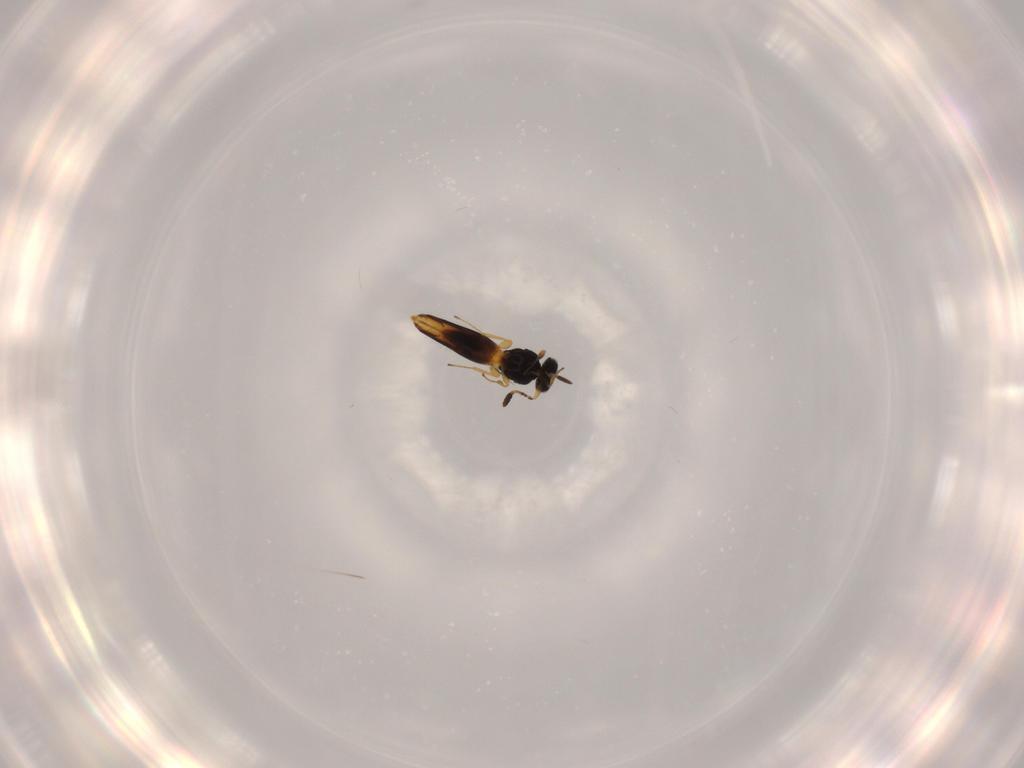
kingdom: Animalia
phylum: Arthropoda
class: Insecta
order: Hymenoptera
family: Scelionidae
